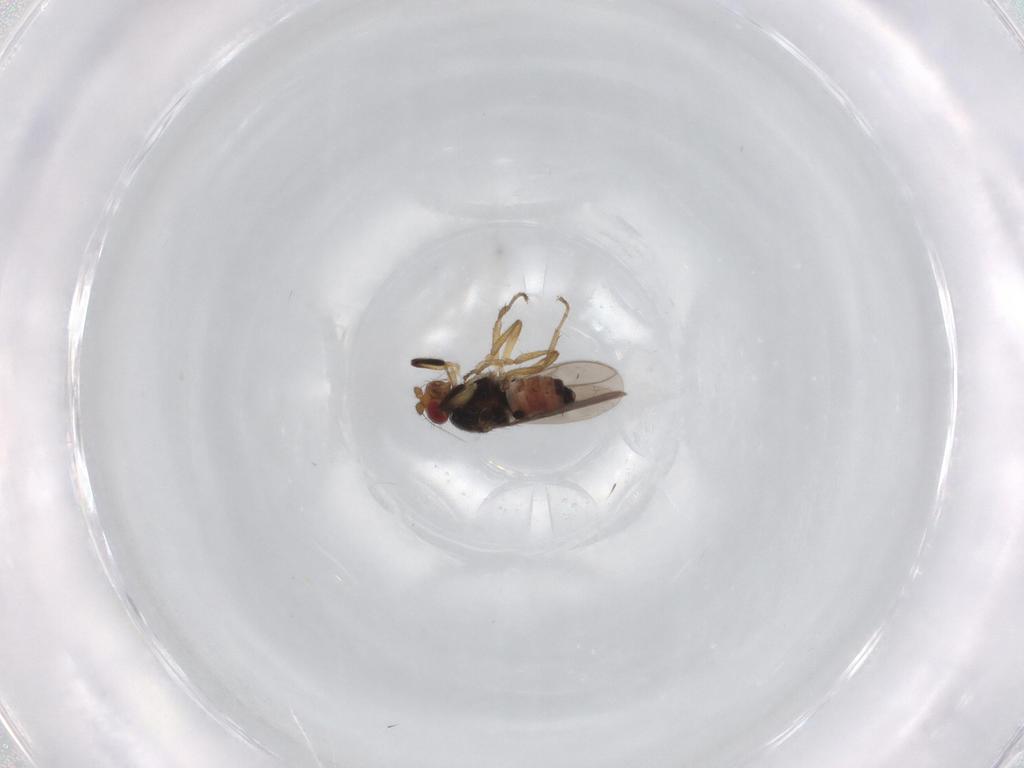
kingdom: Animalia
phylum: Arthropoda
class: Insecta
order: Diptera
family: Sphaeroceridae
